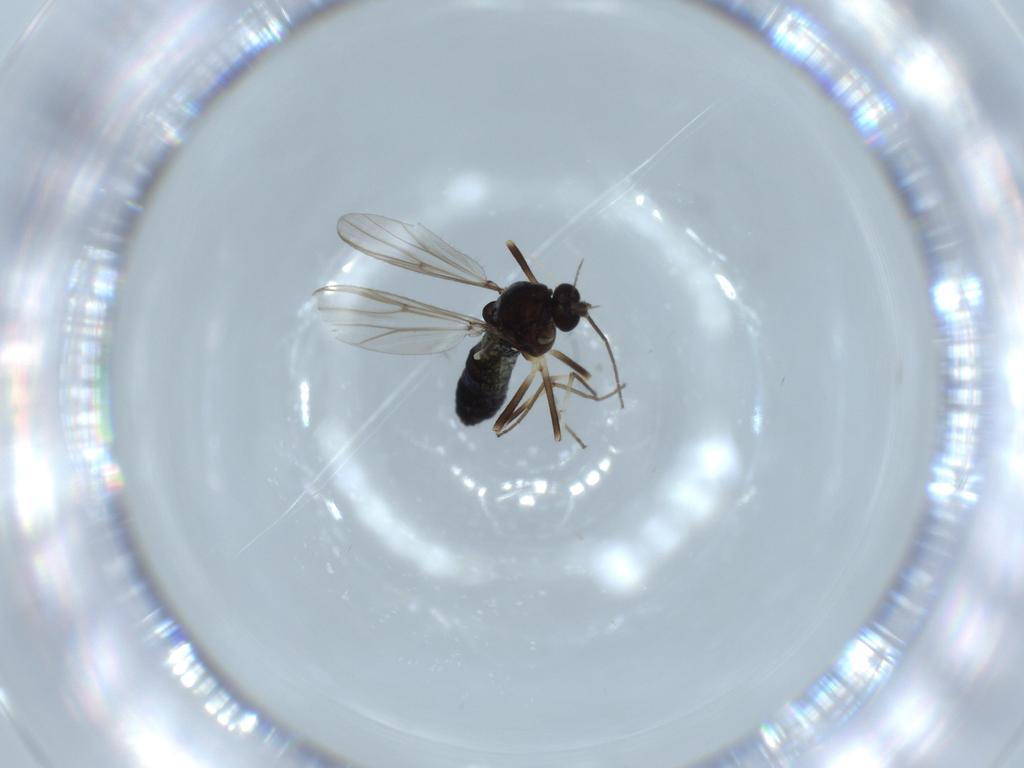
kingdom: Animalia
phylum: Arthropoda
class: Insecta
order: Diptera
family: Chironomidae
